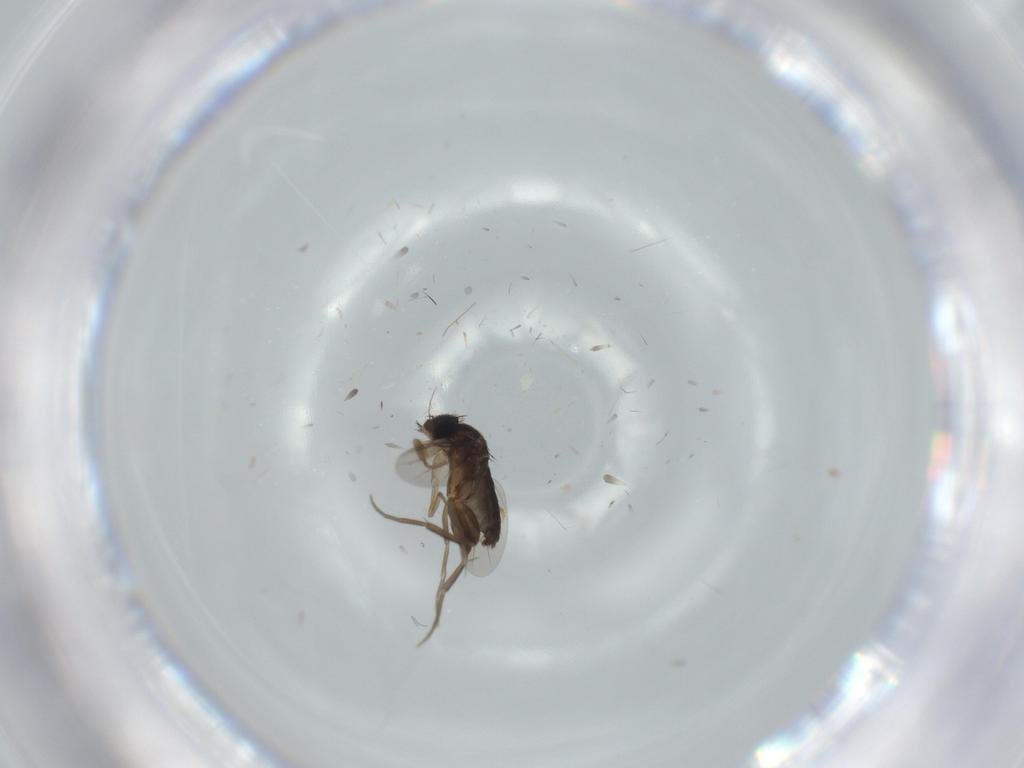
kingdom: Animalia
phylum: Arthropoda
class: Insecta
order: Diptera
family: Phoridae
